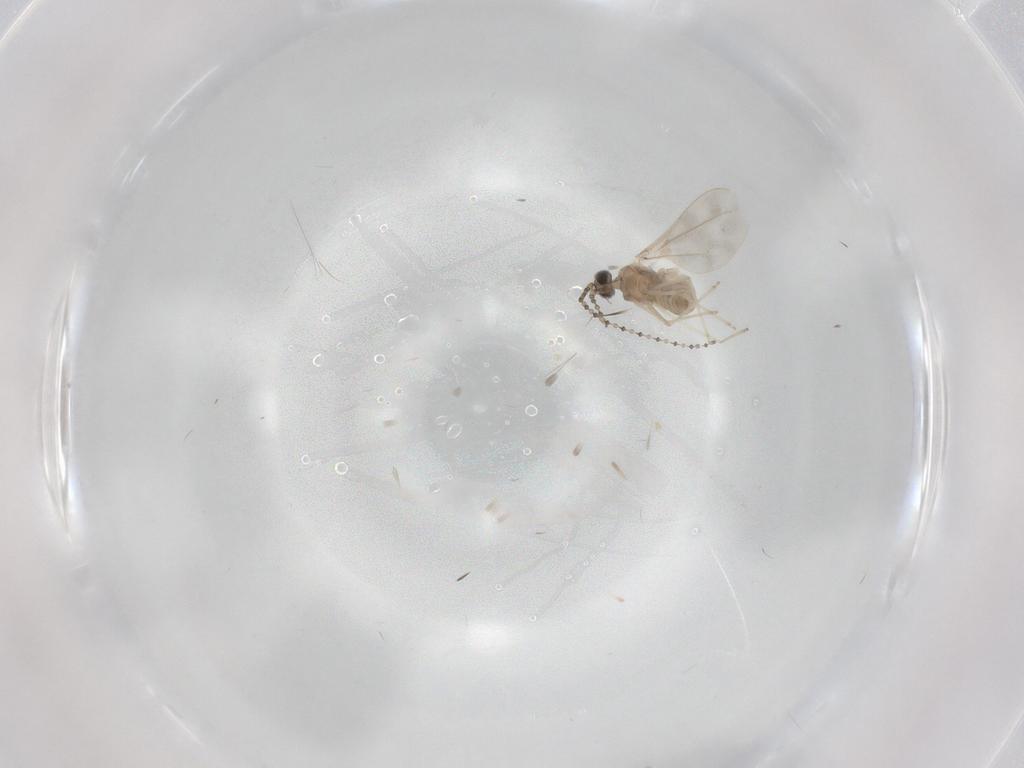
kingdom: Animalia
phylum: Arthropoda
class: Insecta
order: Diptera
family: Cecidomyiidae
